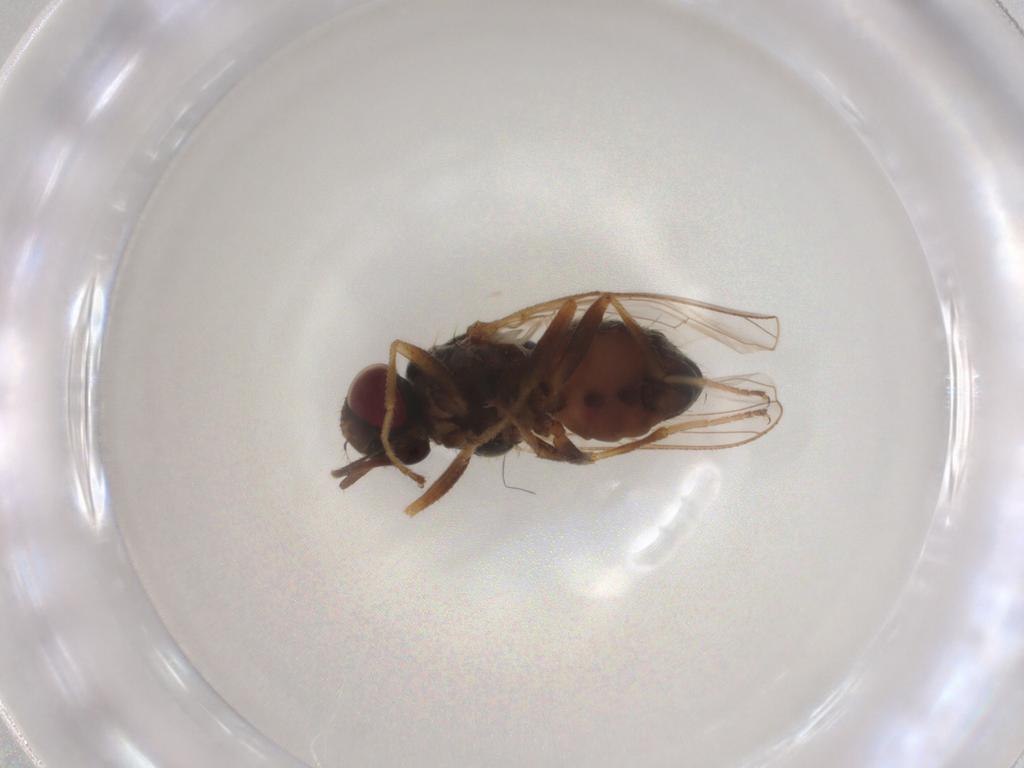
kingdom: Animalia
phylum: Arthropoda
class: Insecta
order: Diptera
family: Muscidae
